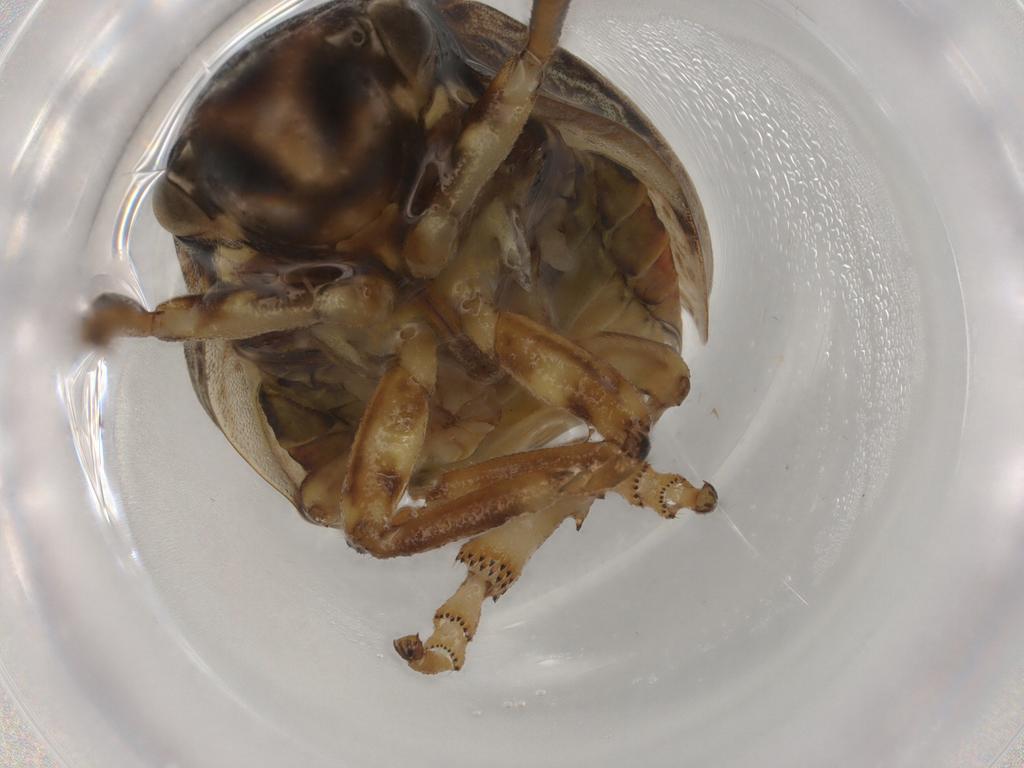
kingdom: Animalia
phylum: Arthropoda
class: Insecta
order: Hemiptera
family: Aphrophoridae
